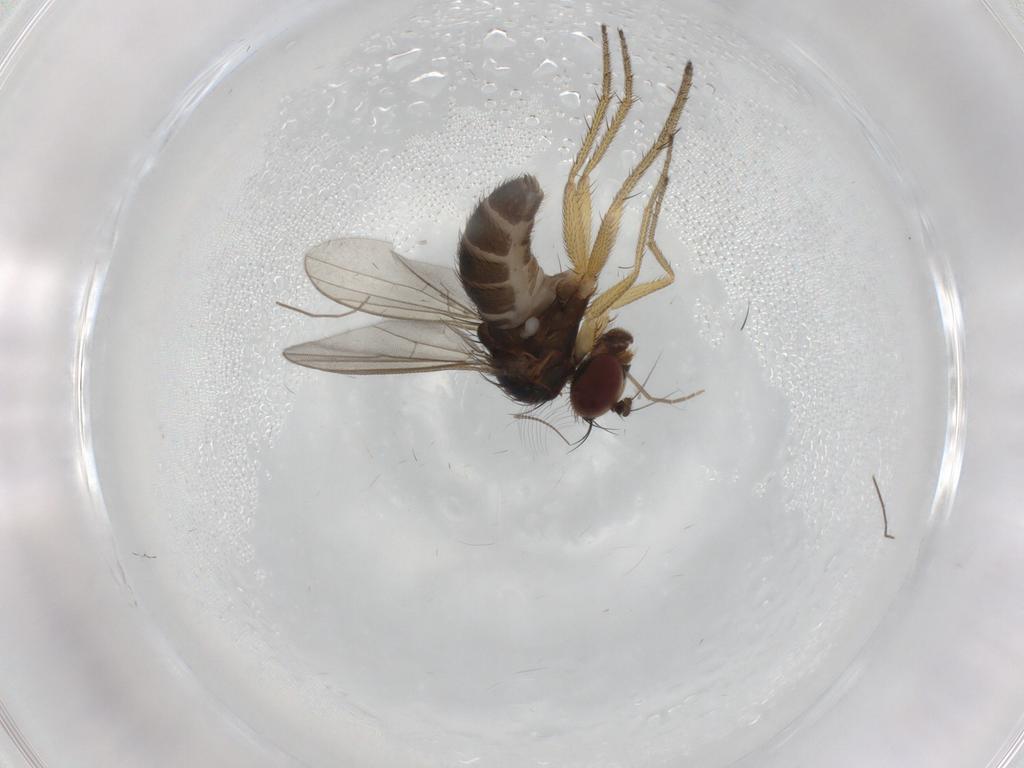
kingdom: Animalia
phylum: Arthropoda
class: Insecta
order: Diptera
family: Chironomidae
